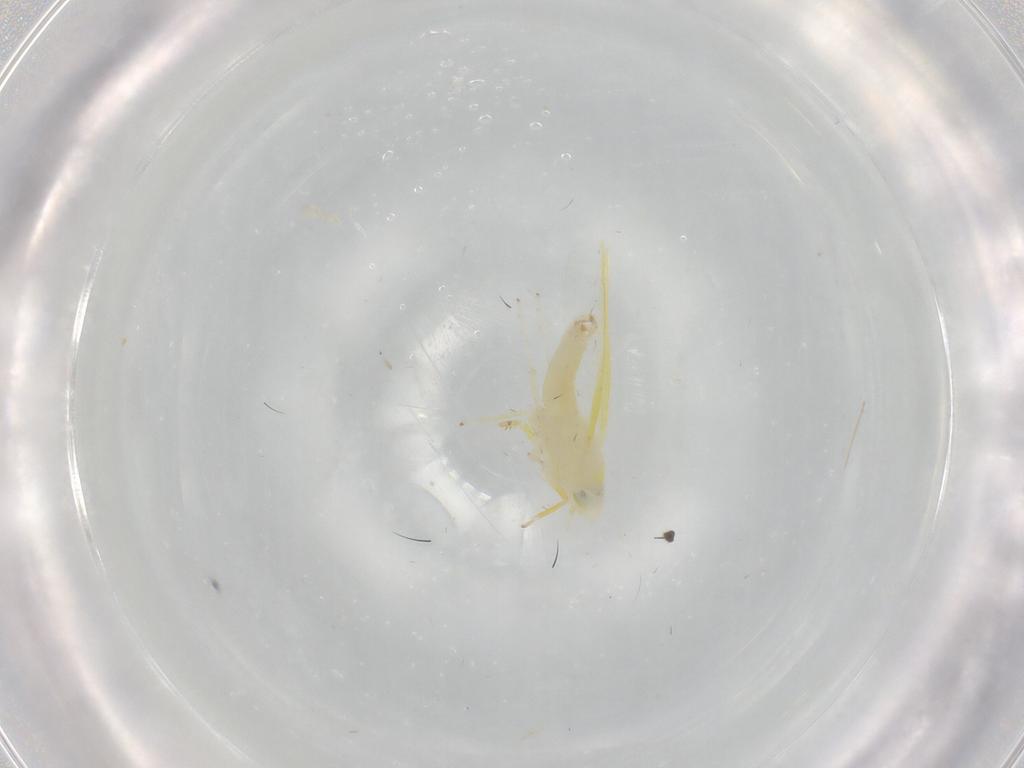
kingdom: Animalia
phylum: Arthropoda
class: Insecta
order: Hemiptera
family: Cicadellidae
